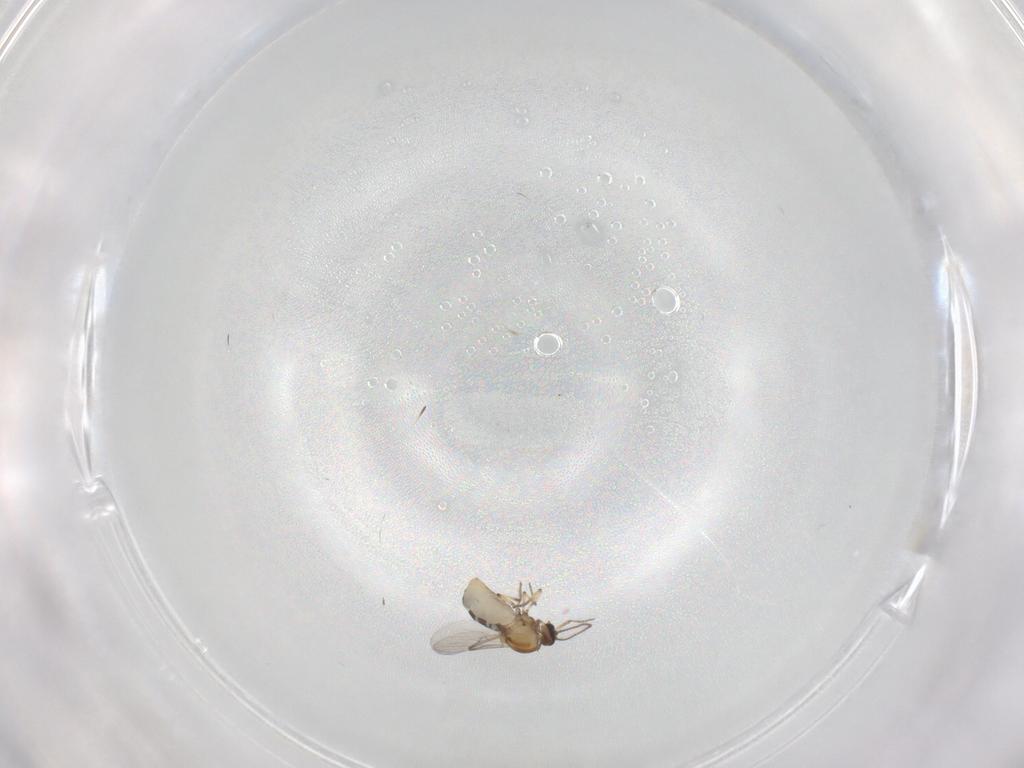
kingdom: Animalia
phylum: Arthropoda
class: Insecta
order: Diptera
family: Ceratopogonidae
